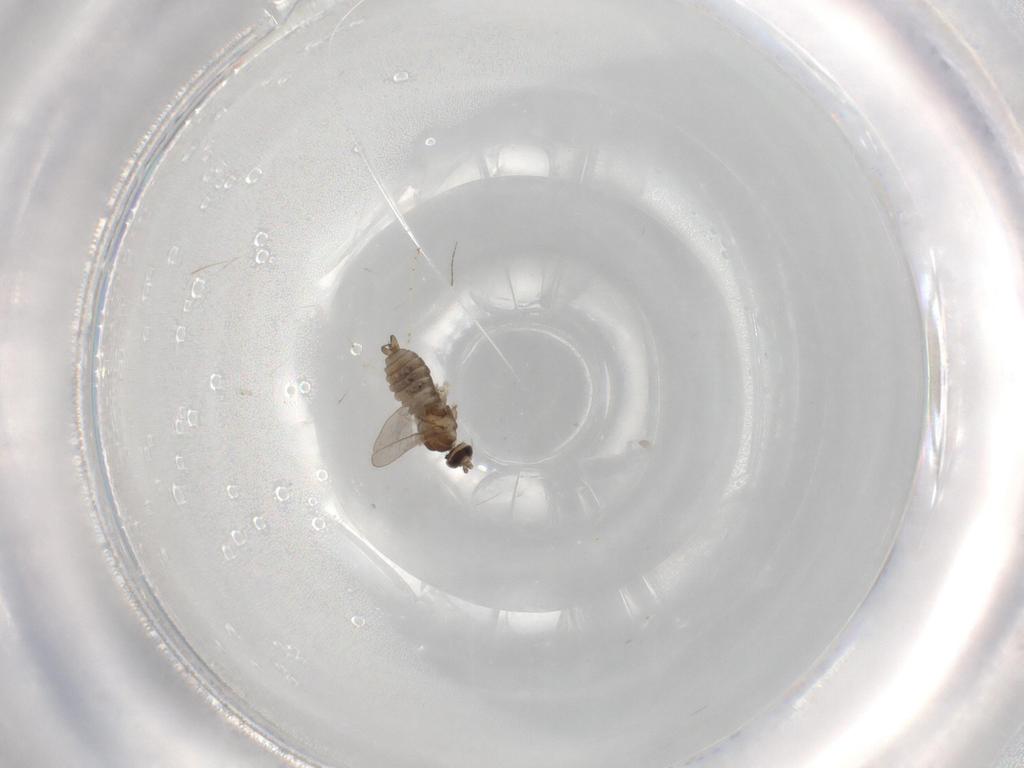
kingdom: Animalia
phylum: Arthropoda
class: Insecta
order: Diptera
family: Cecidomyiidae
